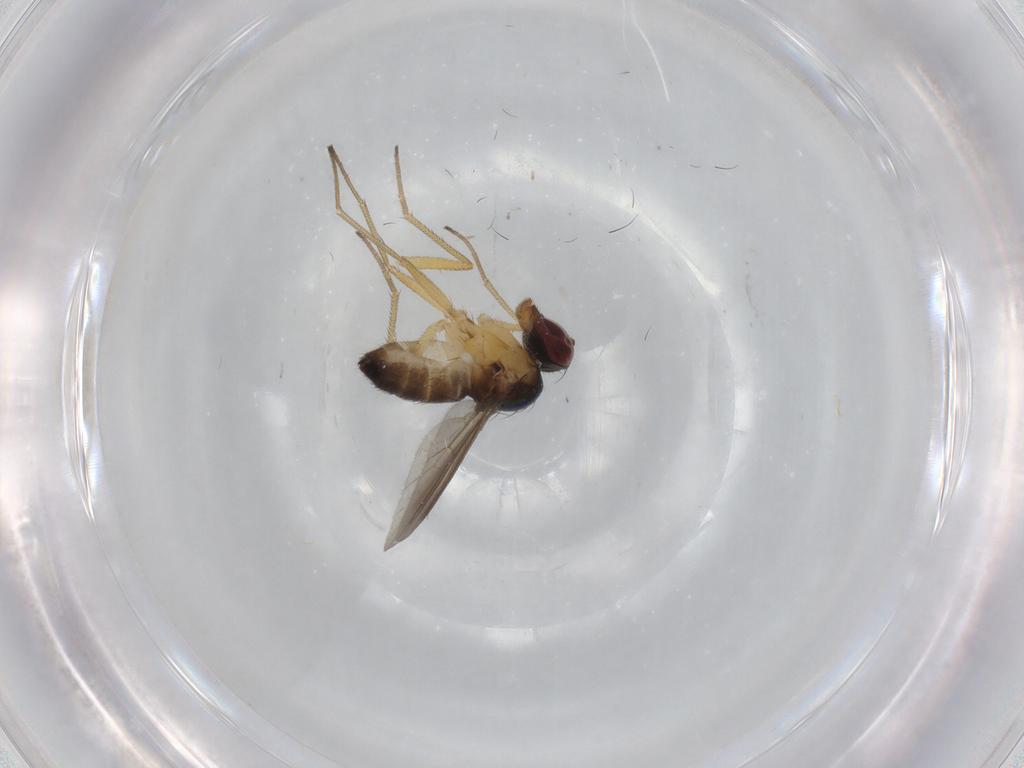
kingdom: Animalia
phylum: Arthropoda
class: Insecta
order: Diptera
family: Dolichopodidae
